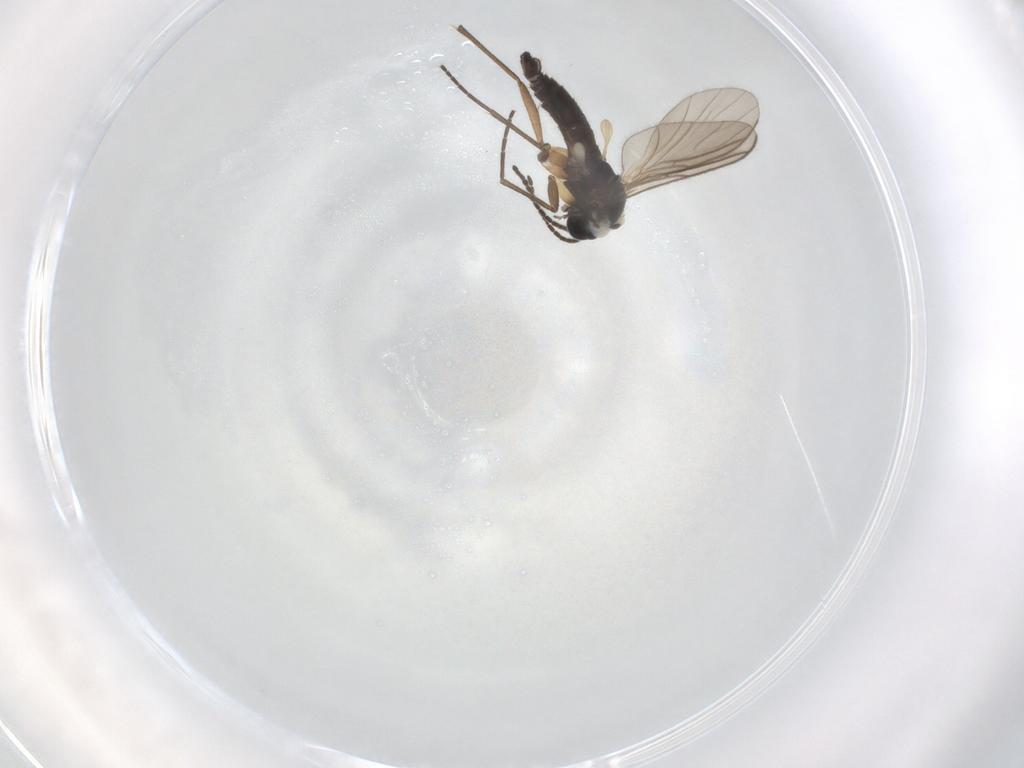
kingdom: Animalia
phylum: Arthropoda
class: Insecta
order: Diptera
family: Sciaridae
